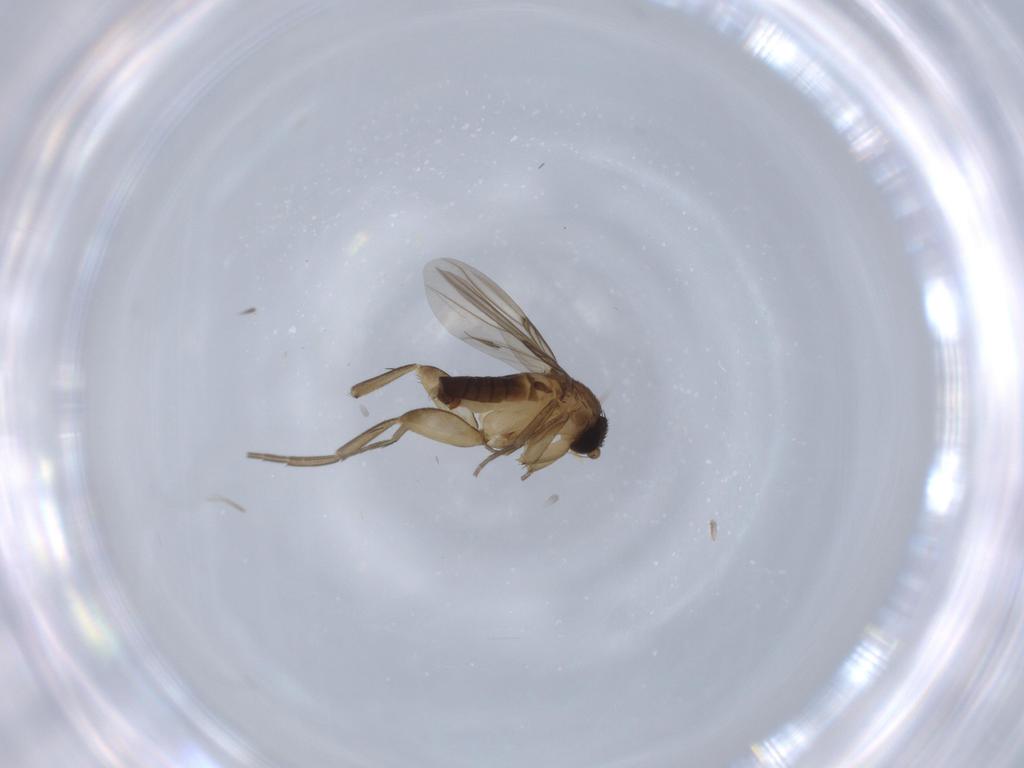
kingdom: Animalia
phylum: Arthropoda
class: Insecta
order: Diptera
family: Phoridae
